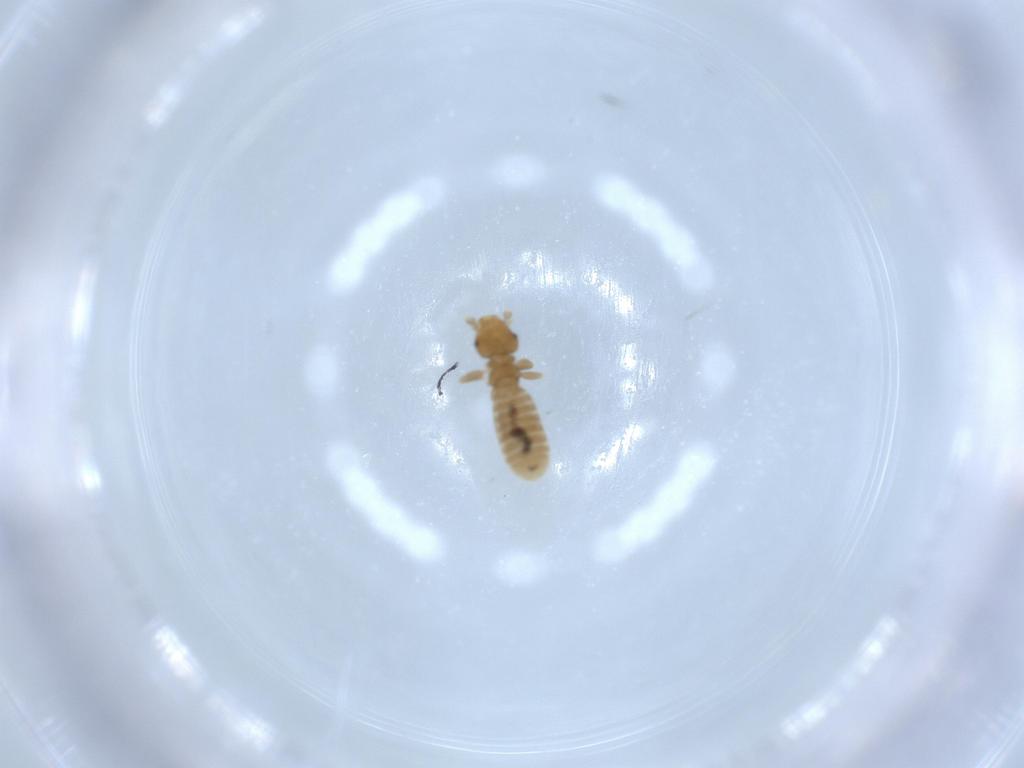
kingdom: Animalia
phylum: Arthropoda
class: Insecta
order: Psocodea
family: Liposcelididae
